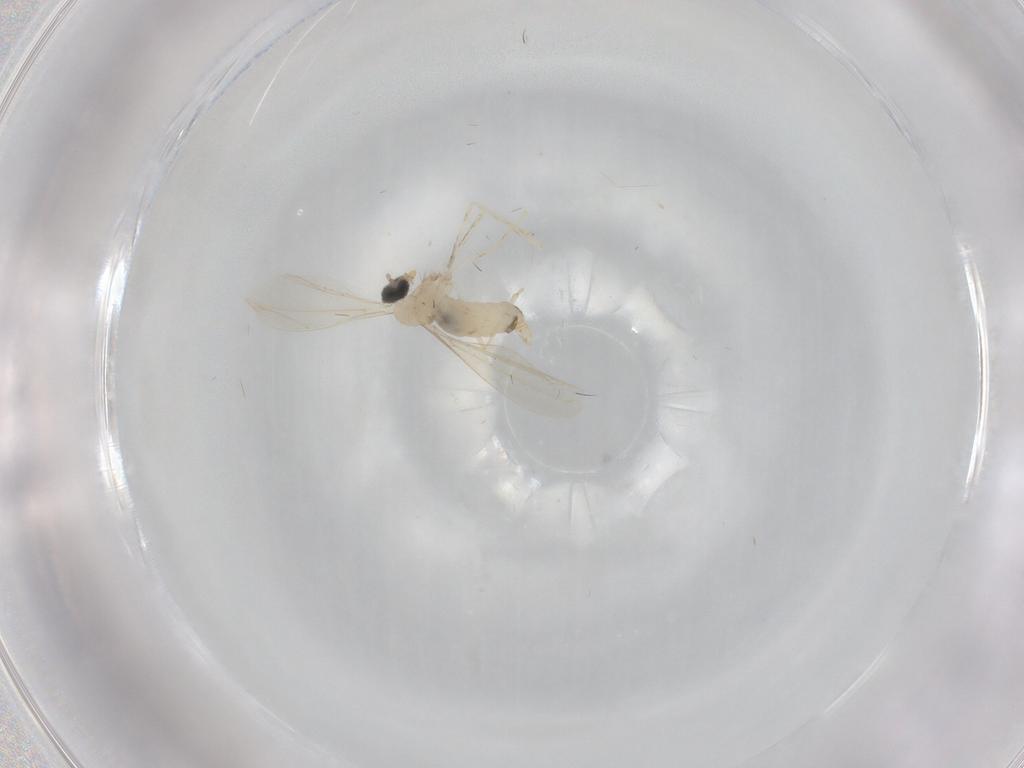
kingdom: Animalia
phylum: Arthropoda
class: Insecta
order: Diptera
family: Cecidomyiidae
